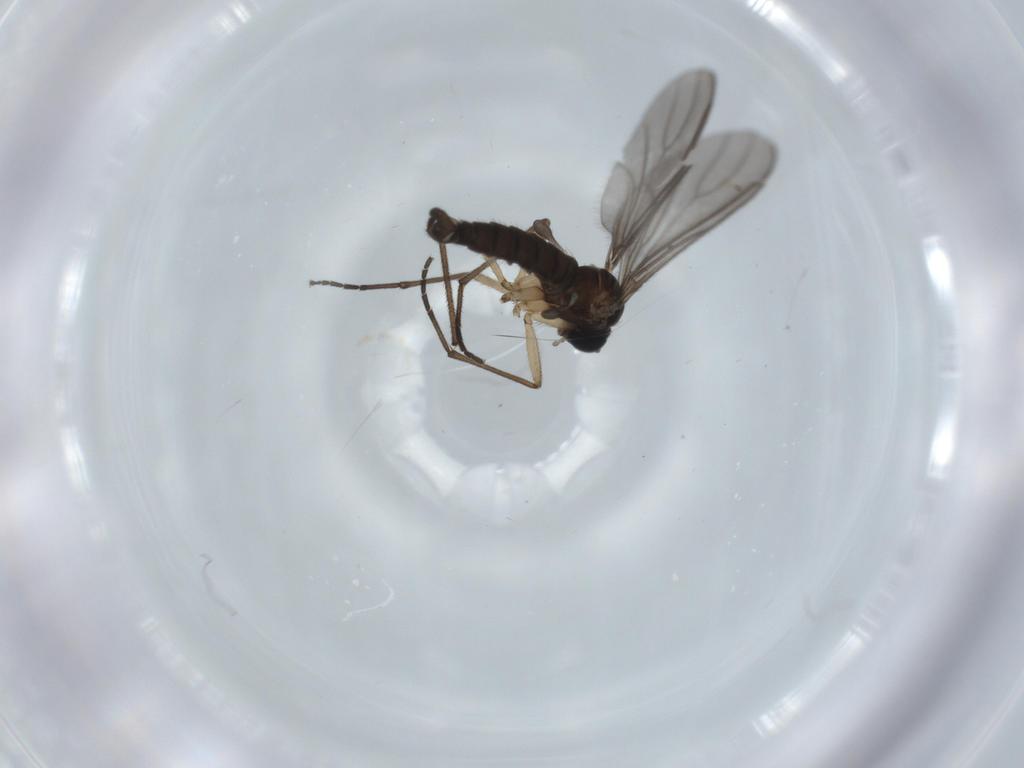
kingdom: Animalia
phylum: Arthropoda
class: Insecta
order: Diptera
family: Sciaridae
